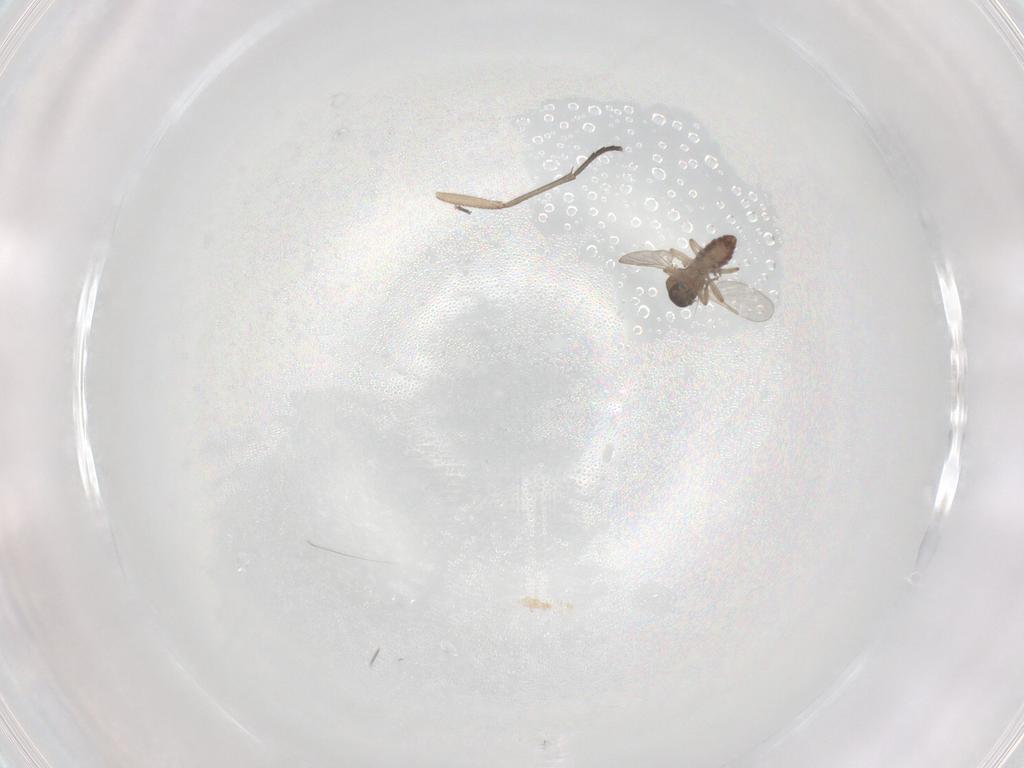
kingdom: Animalia
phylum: Arthropoda
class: Insecta
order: Diptera
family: Sciaridae
